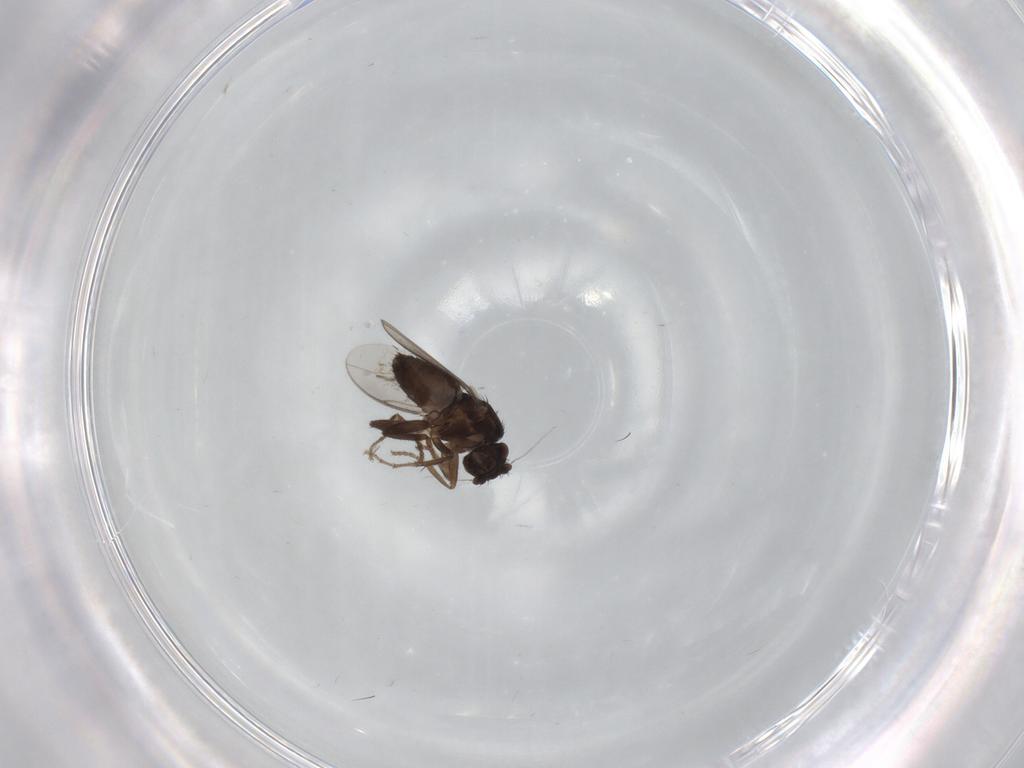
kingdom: Animalia
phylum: Arthropoda
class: Insecta
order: Diptera
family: Sphaeroceridae
